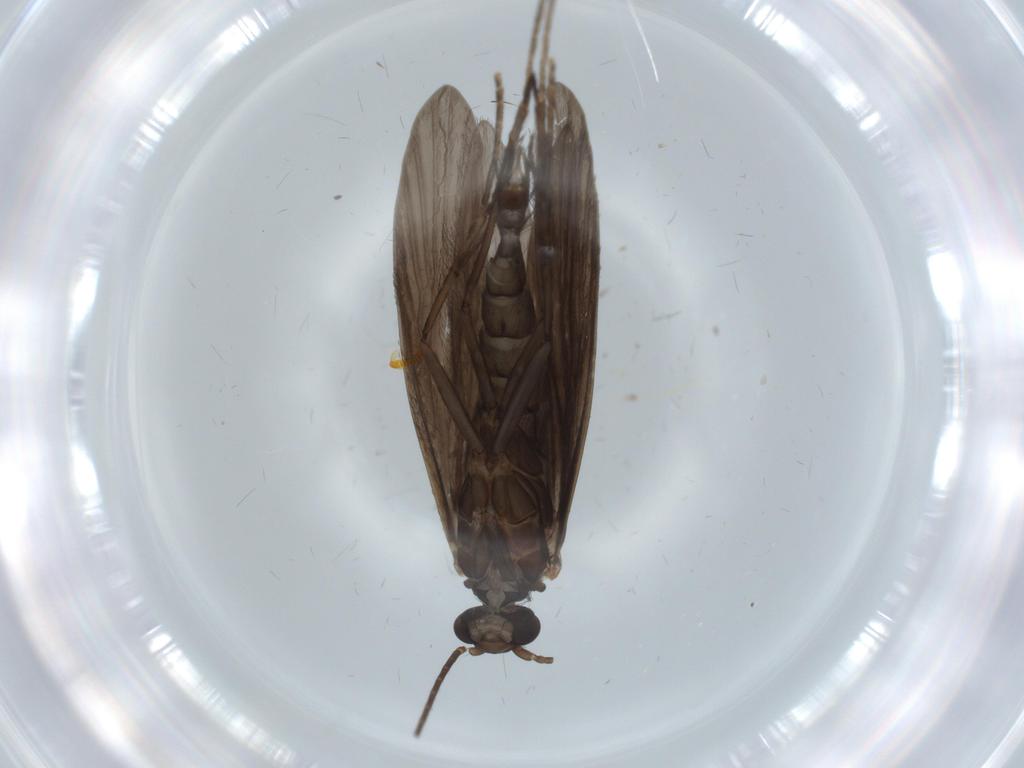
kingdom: Animalia
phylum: Arthropoda
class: Insecta
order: Trichoptera
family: Xiphocentronidae
